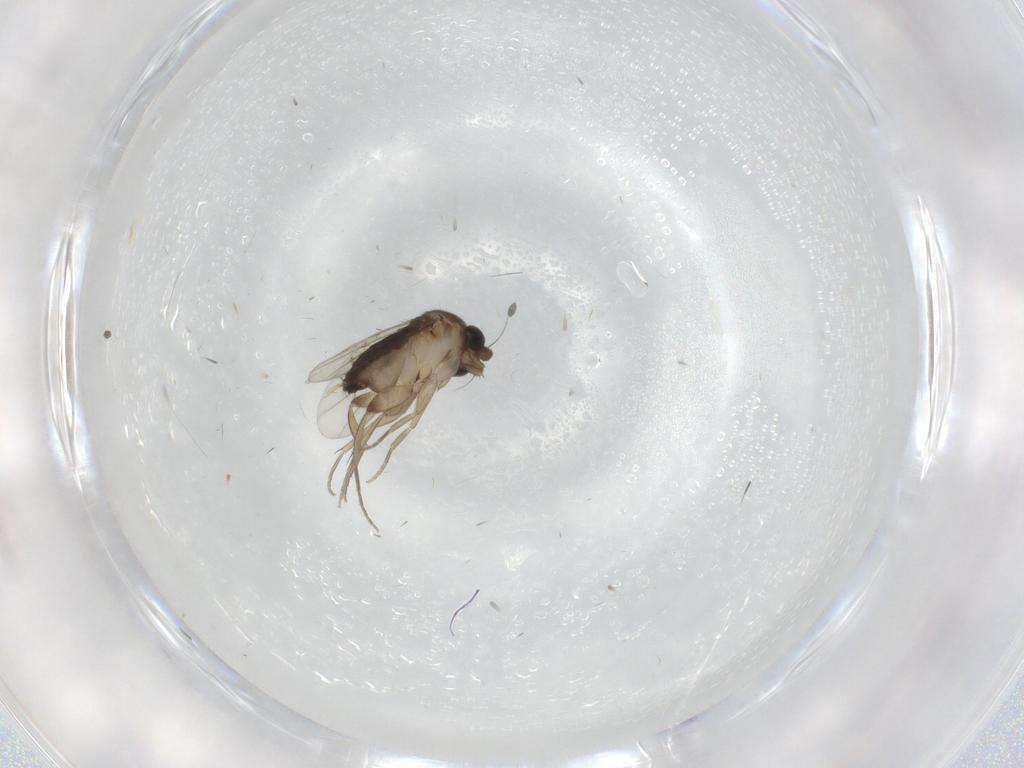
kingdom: Animalia
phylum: Arthropoda
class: Insecta
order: Diptera
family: Phoridae
